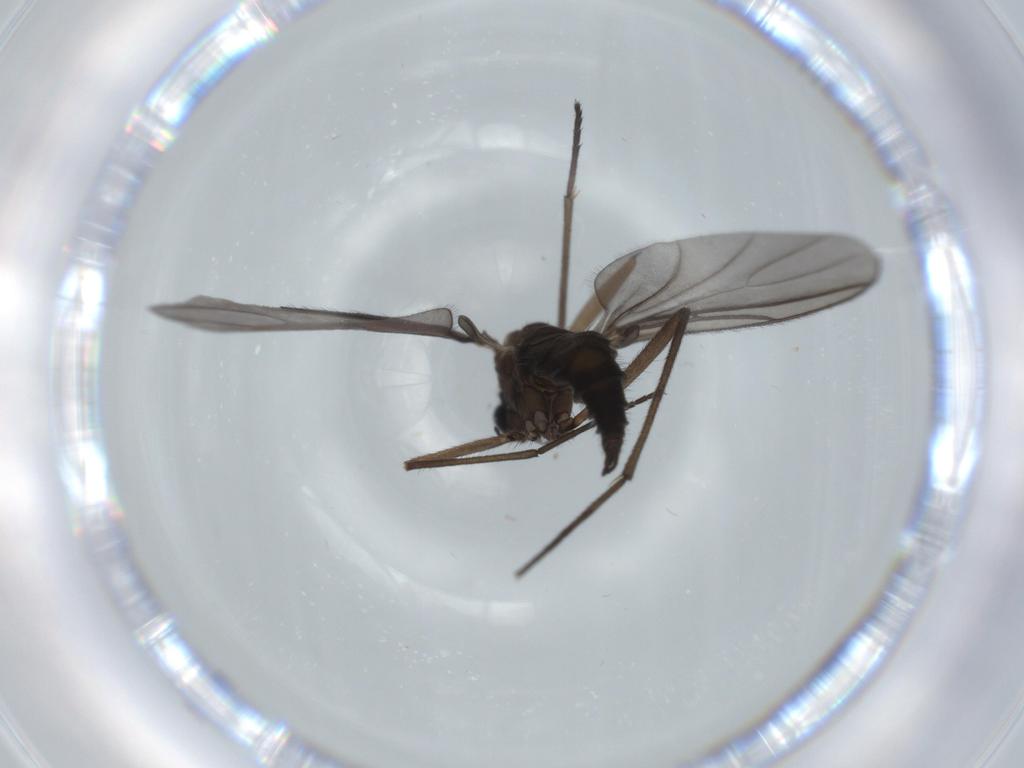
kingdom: Animalia
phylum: Arthropoda
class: Insecta
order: Diptera
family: Sciaridae
